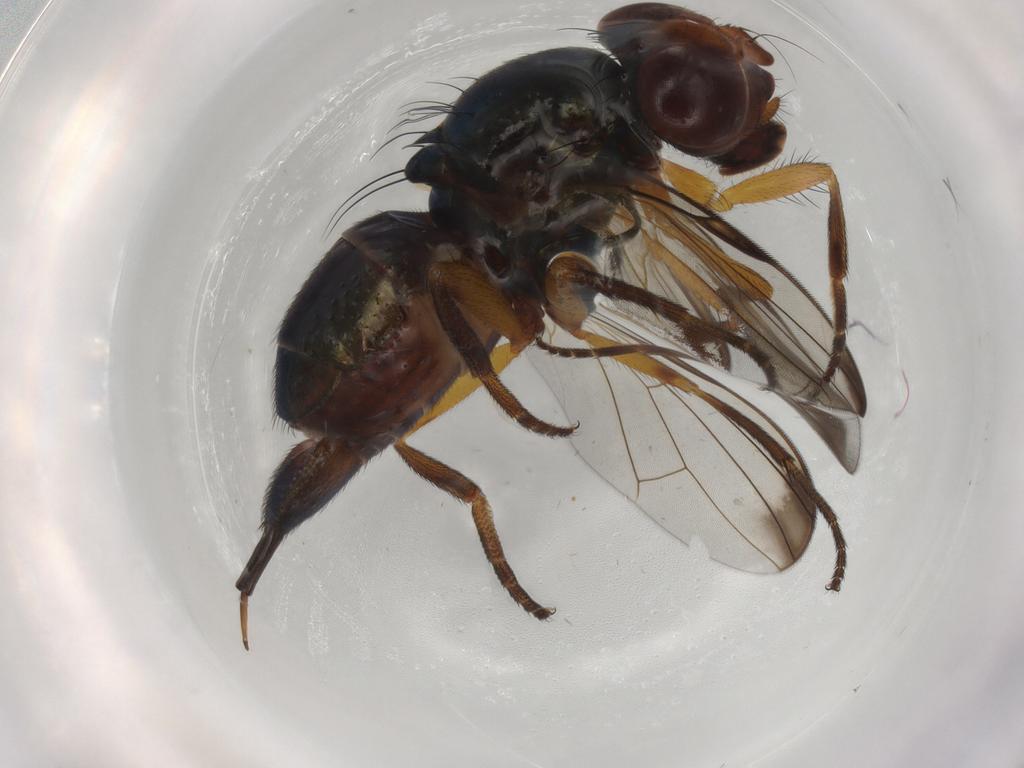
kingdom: Animalia
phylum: Arthropoda
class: Insecta
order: Diptera
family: Ulidiidae
